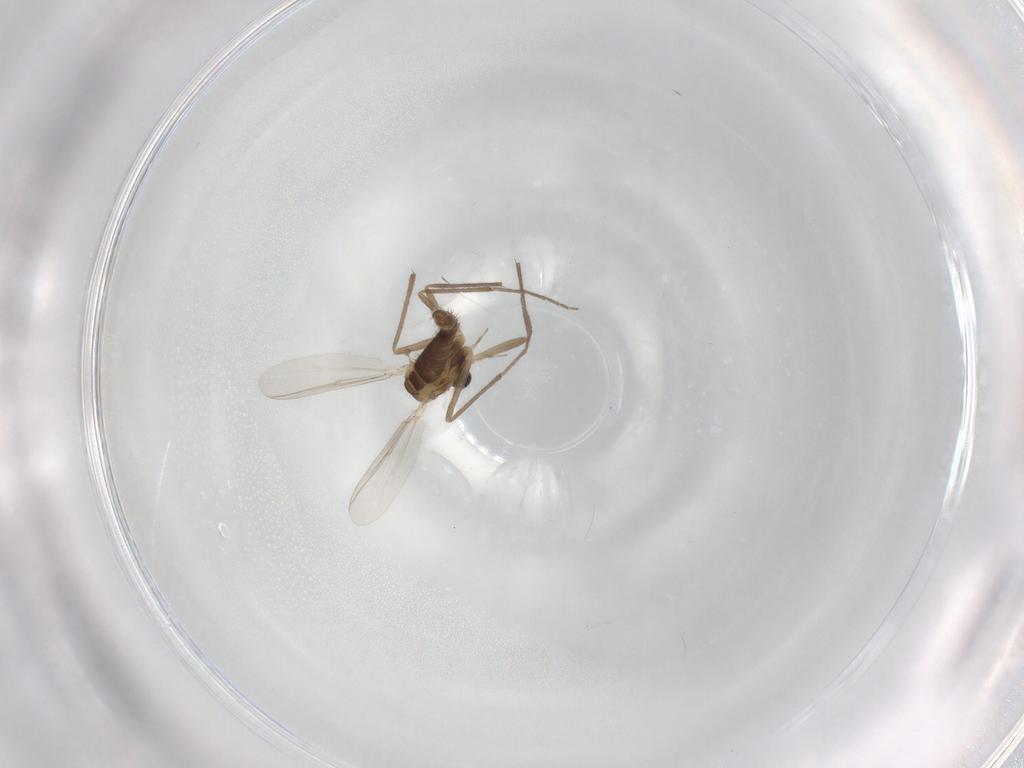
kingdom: Animalia
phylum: Arthropoda
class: Insecta
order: Diptera
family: Chironomidae
